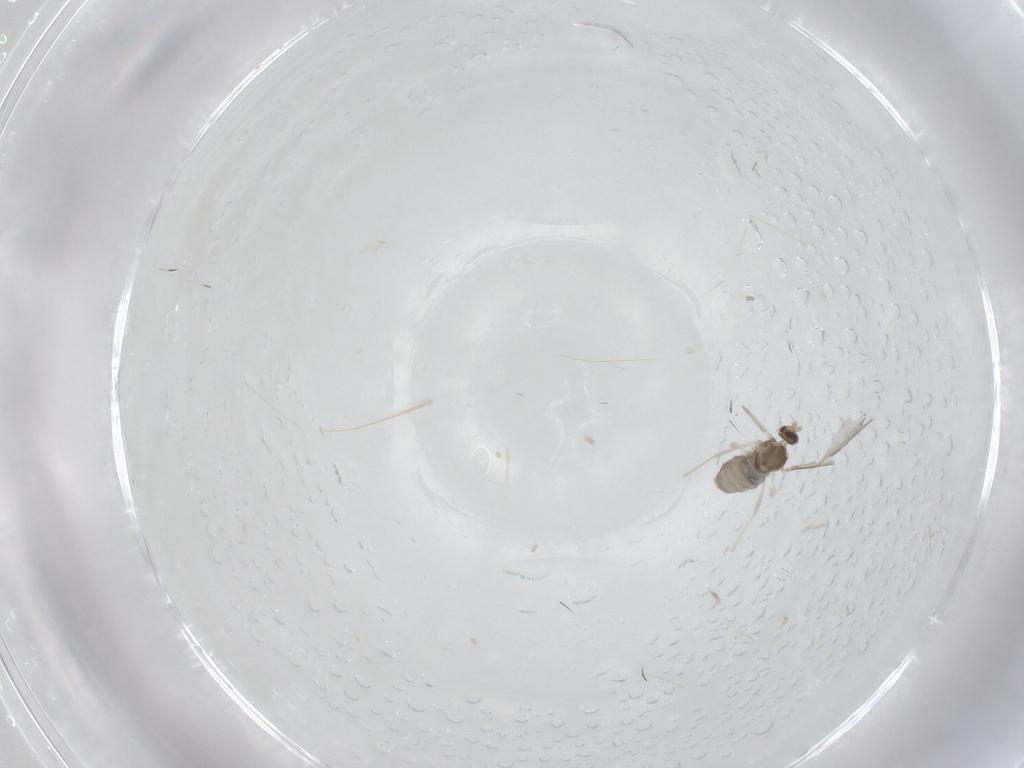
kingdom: Animalia
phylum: Arthropoda
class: Insecta
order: Diptera
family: Cecidomyiidae
